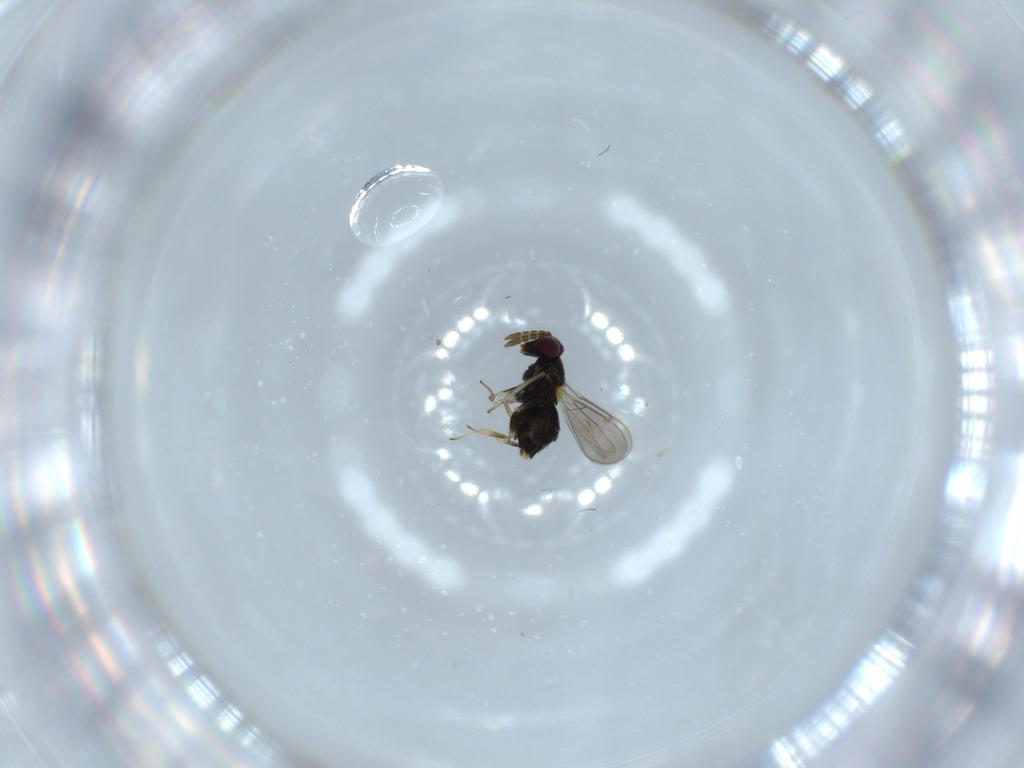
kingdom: Animalia
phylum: Arthropoda
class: Insecta
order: Hymenoptera
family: Aphelinidae
